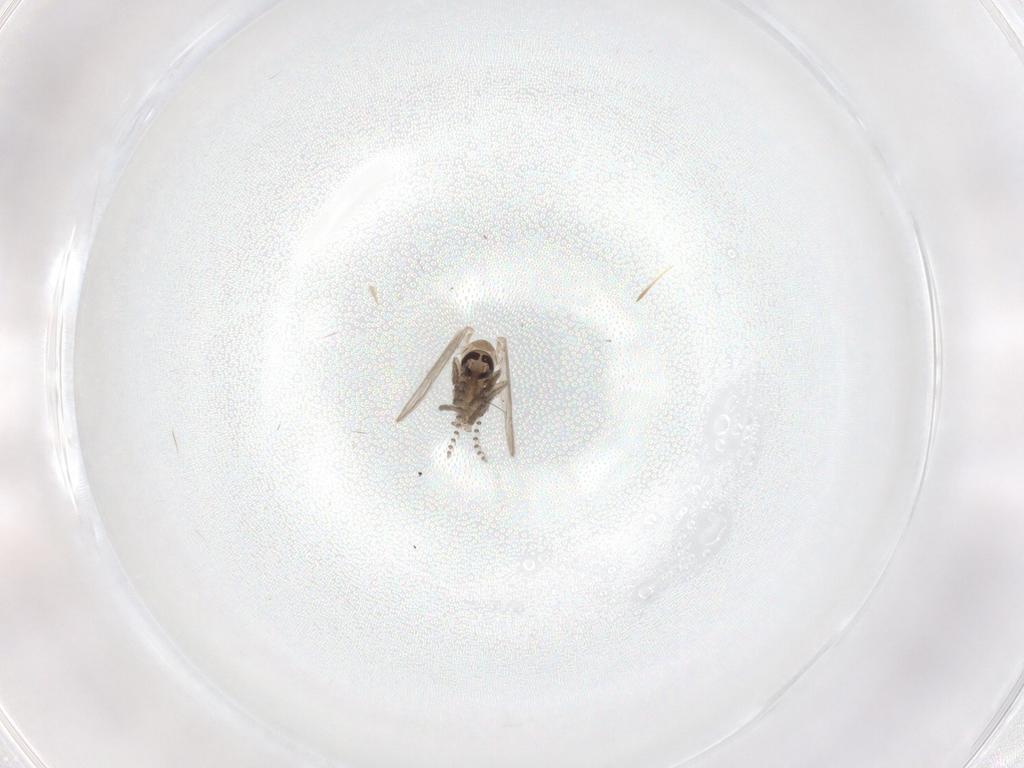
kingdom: Animalia
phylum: Arthropoda
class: Insecta
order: Diptera
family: Psychodidae
